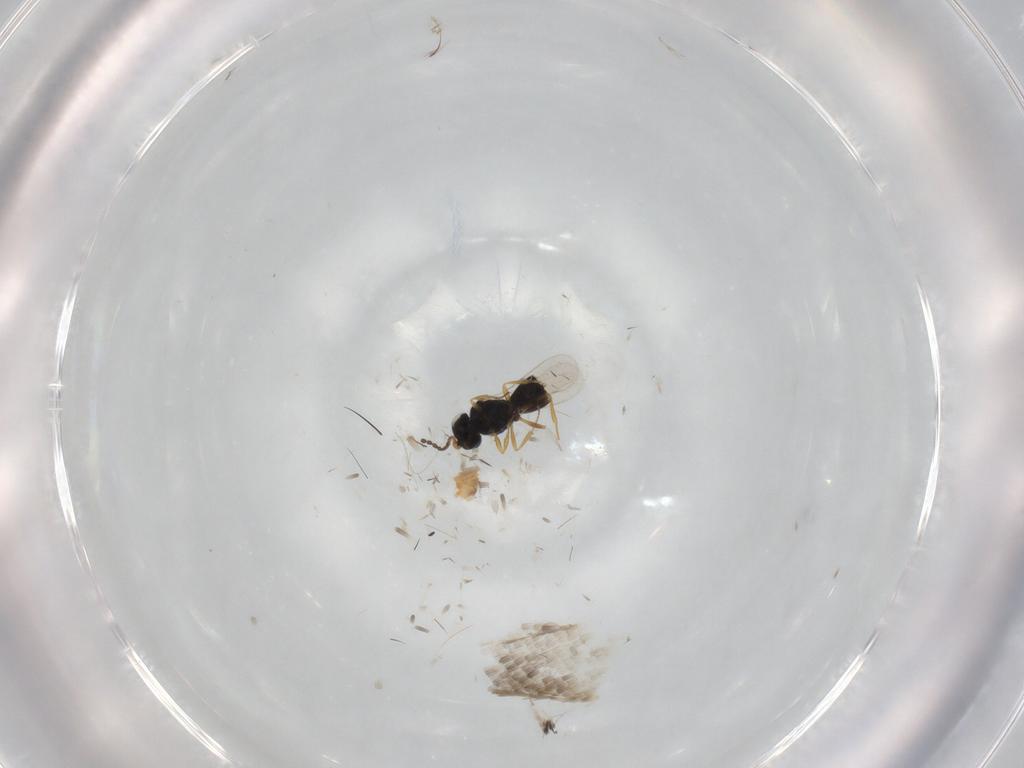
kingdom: Animalia
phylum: Arthropoda
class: Insecta
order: Hymenoptera
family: Scelionidae
